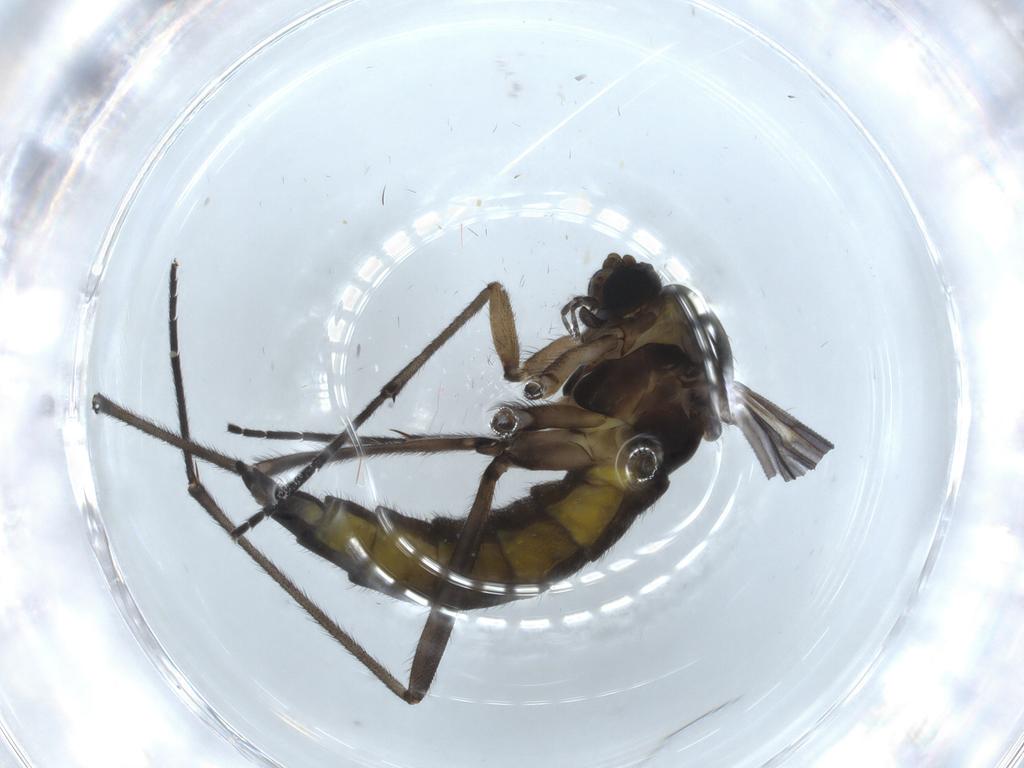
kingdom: Animalia
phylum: Arthropoda
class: Insecta
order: Diptera
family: Sciaridae
